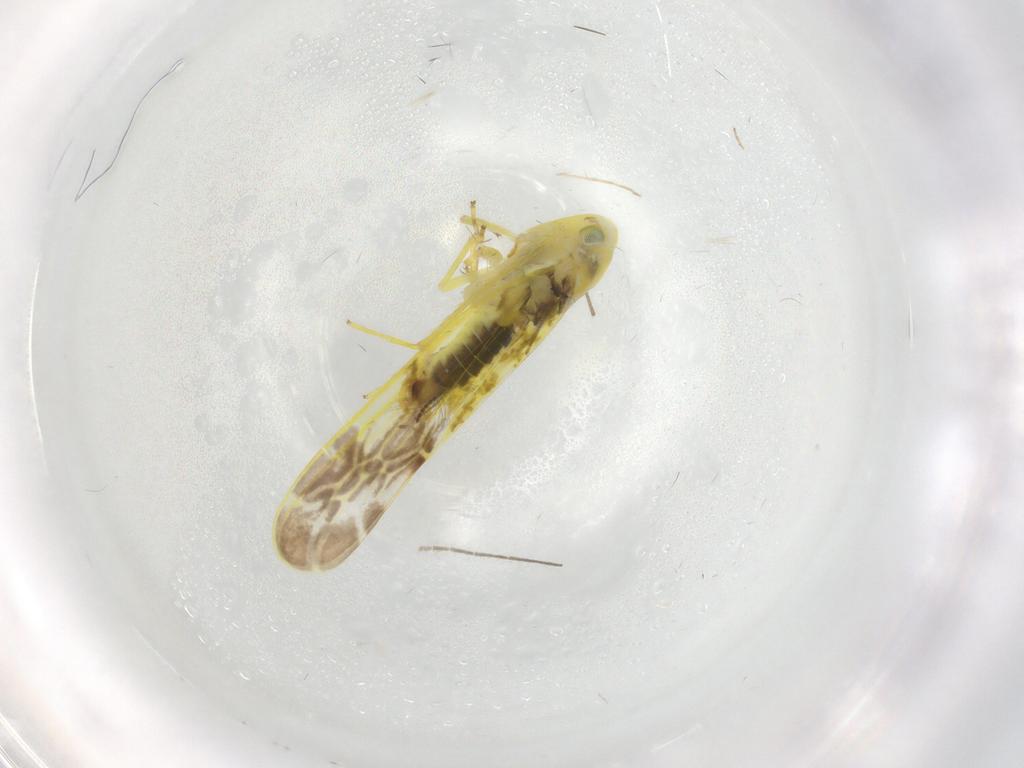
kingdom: Animalia
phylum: Arthropoda
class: Insecta
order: Hemiptera
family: Cicadellidae
